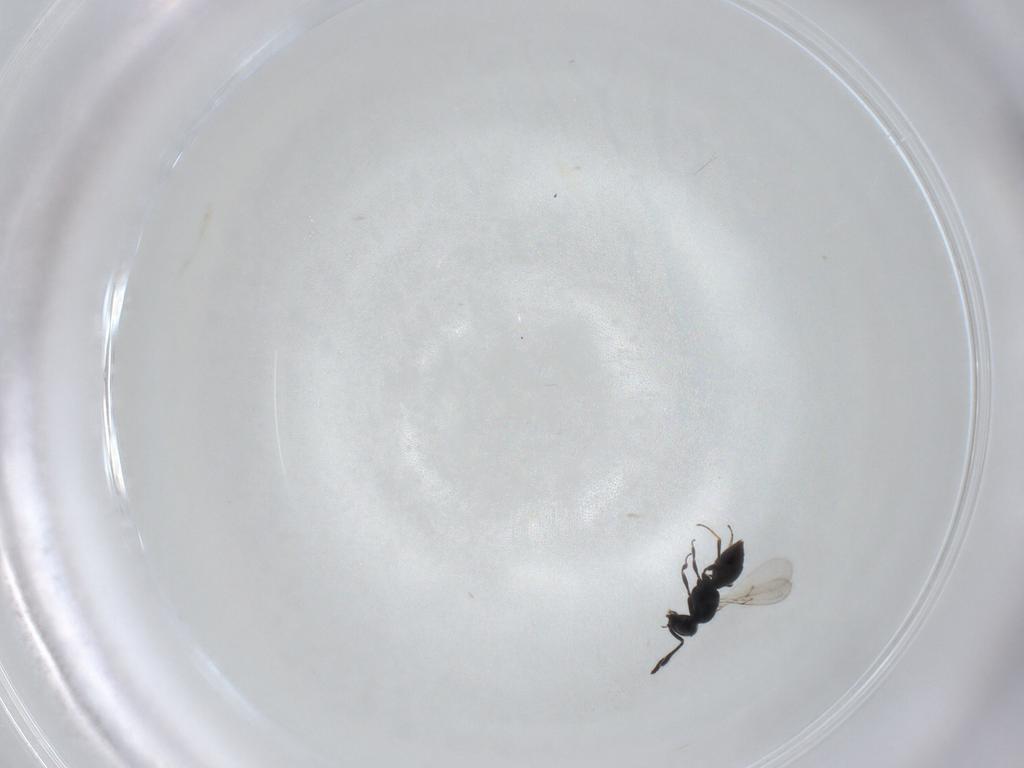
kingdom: Animalia
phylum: Arthropoda
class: Insecta
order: Hymenoptera
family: Scelionidae
